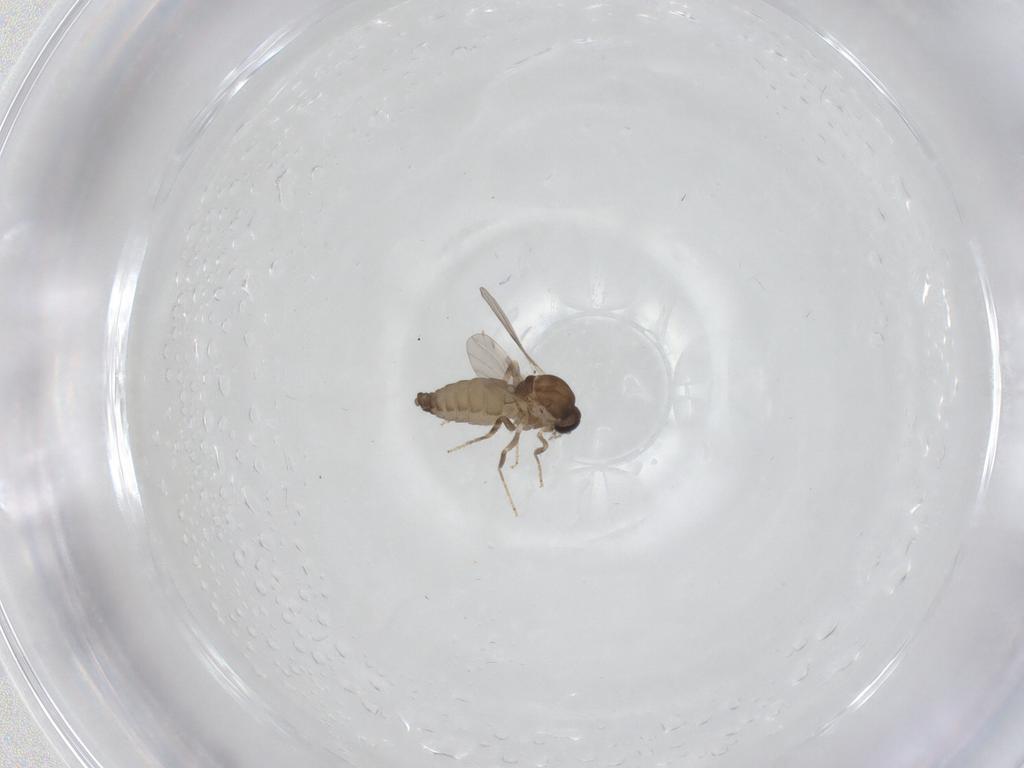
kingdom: Animalia
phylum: Arthropoda
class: Insecta
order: Diptera
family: Ceratopogonidae
